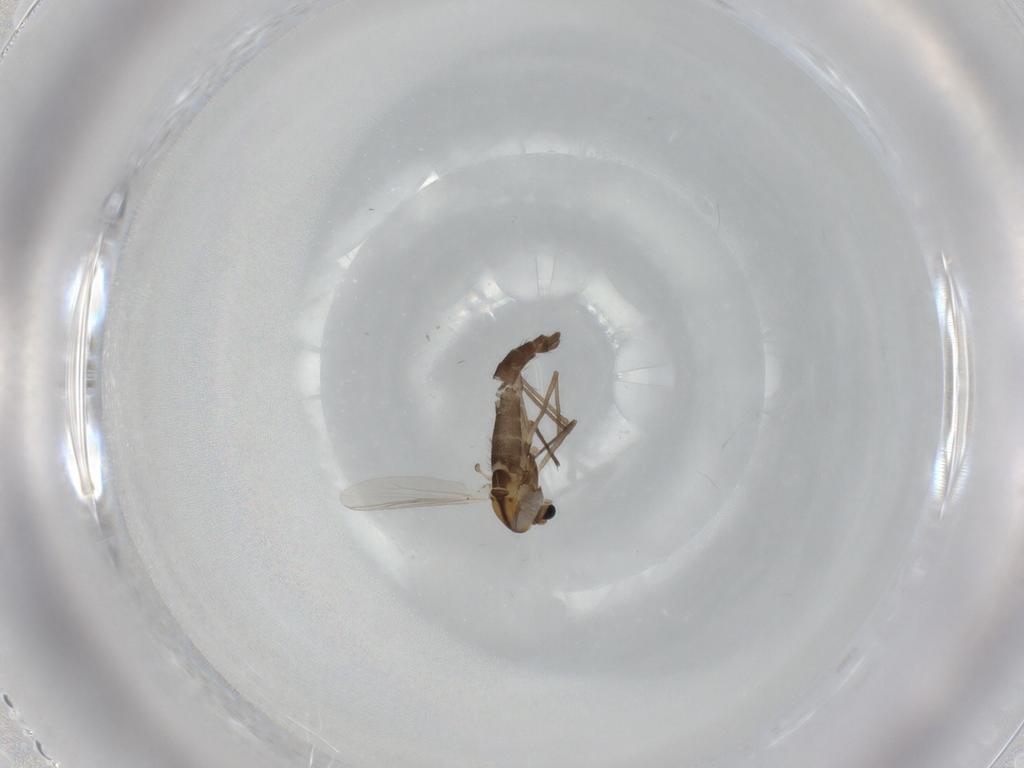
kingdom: Animalia
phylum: Arthropoda
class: Insecta
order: Diptera
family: Chironomidae
